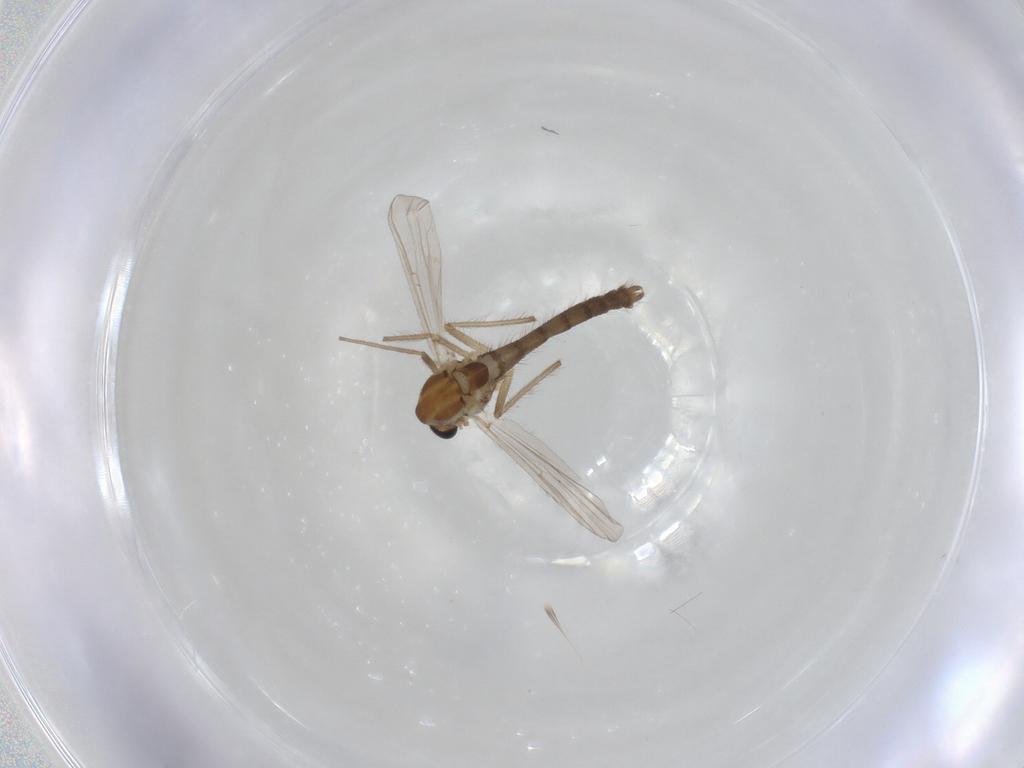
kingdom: Animalia
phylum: Arthropoda
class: Insecta
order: Diptera
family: Chironomidae
